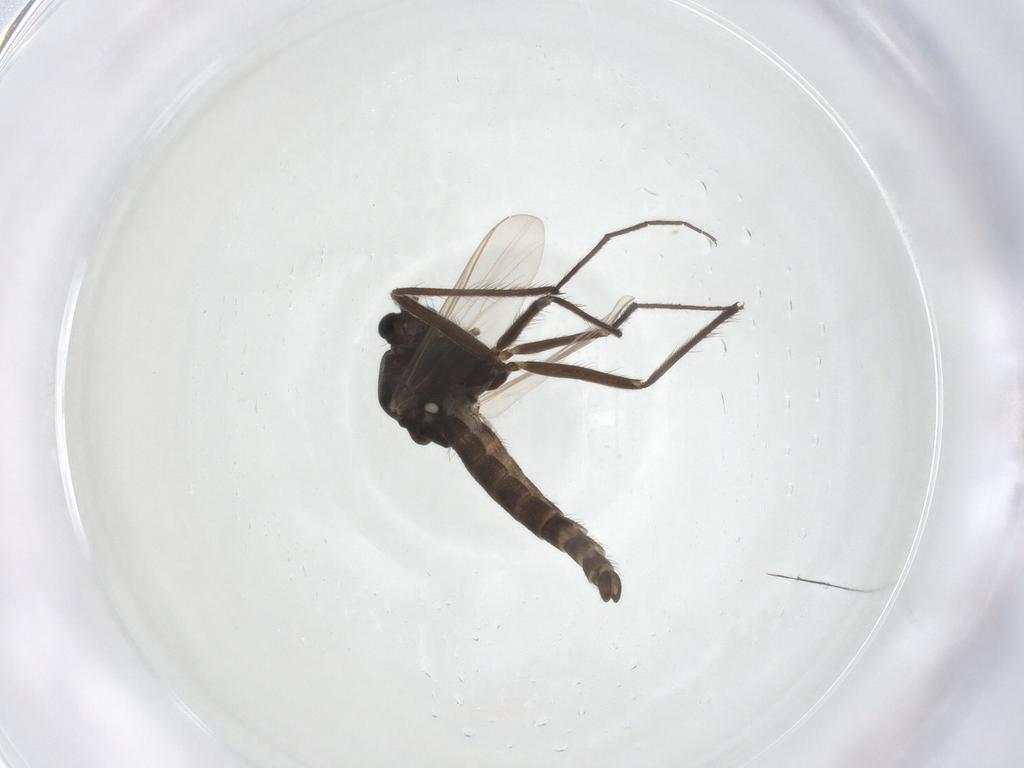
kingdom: Animalia
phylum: Arthropoda
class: Insecta
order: Diptera
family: Chironomidae
